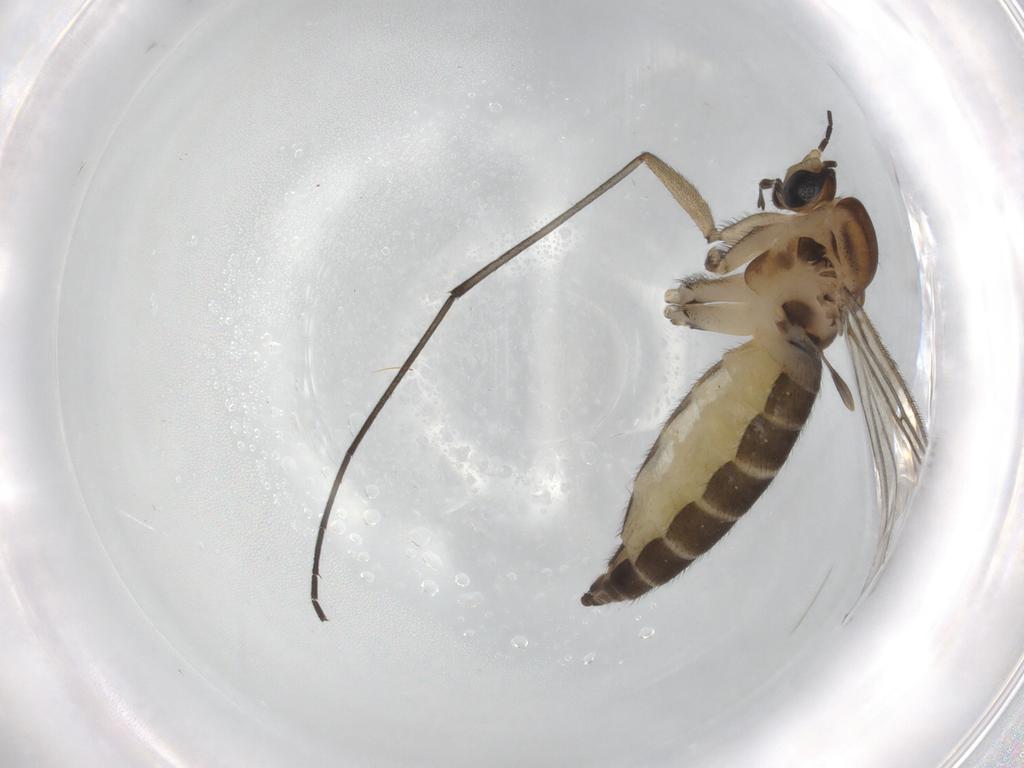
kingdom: Animalia
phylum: Arthropoda
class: Insecta
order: Diptera
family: Sciaridae
